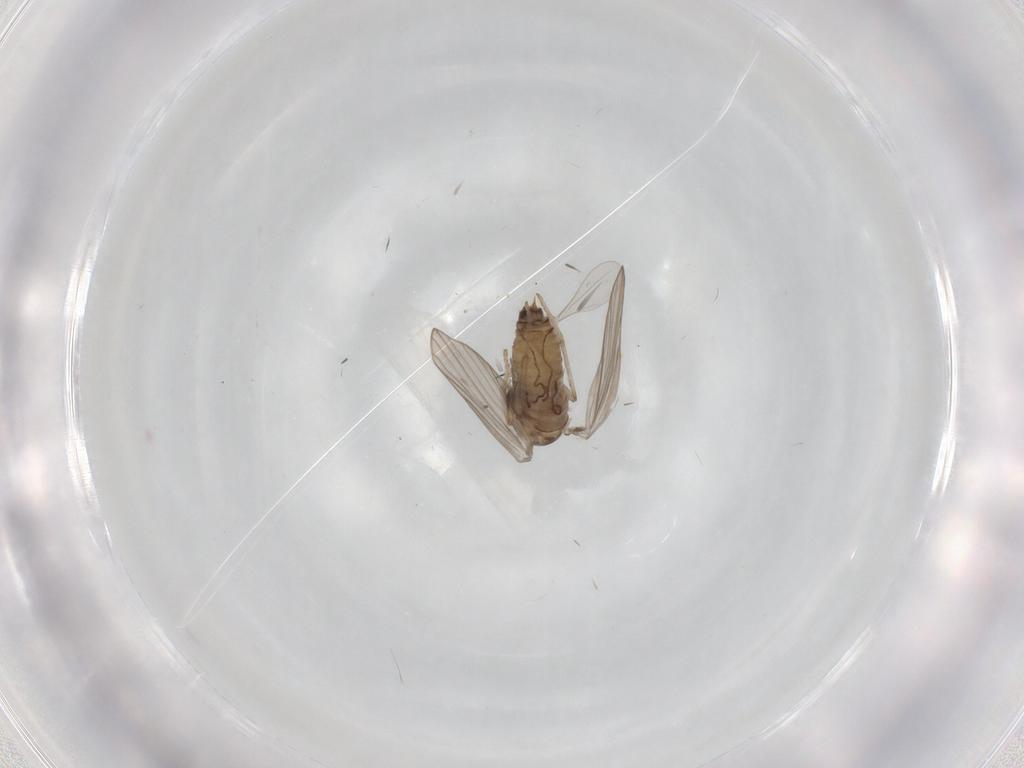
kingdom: Animalia
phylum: Arthropoda
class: Insecta
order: Diptera
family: Psychodidae
